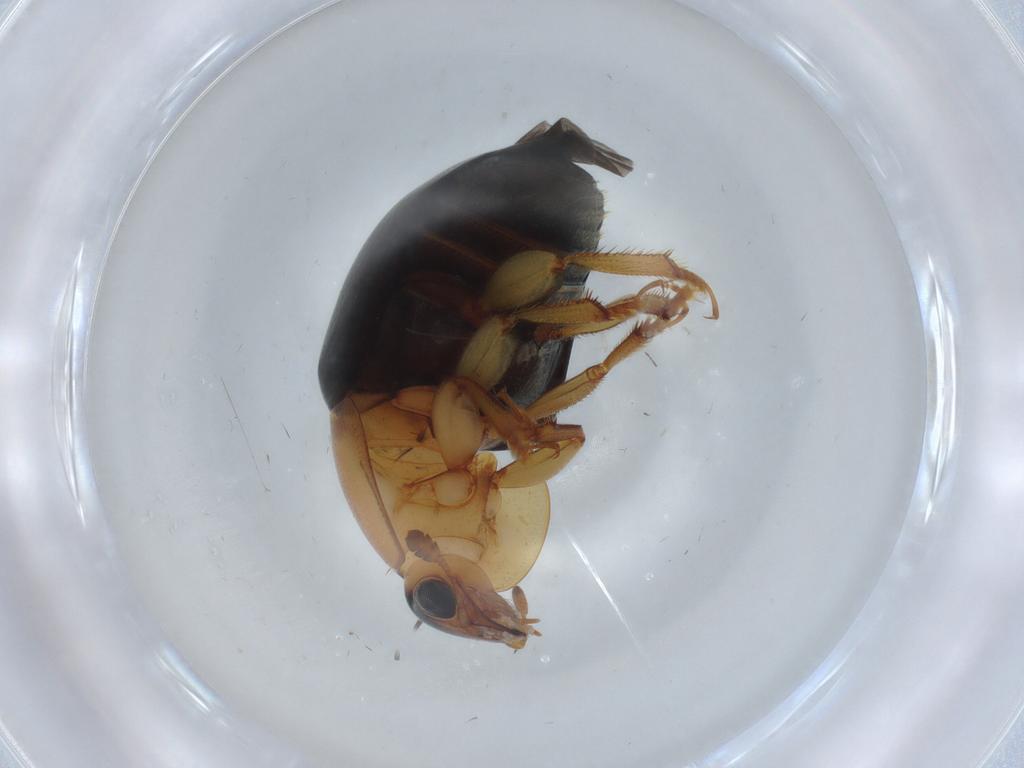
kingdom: Animalia
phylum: Arthropoda
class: Insecta
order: Coleoptera
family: Nitidulidae
